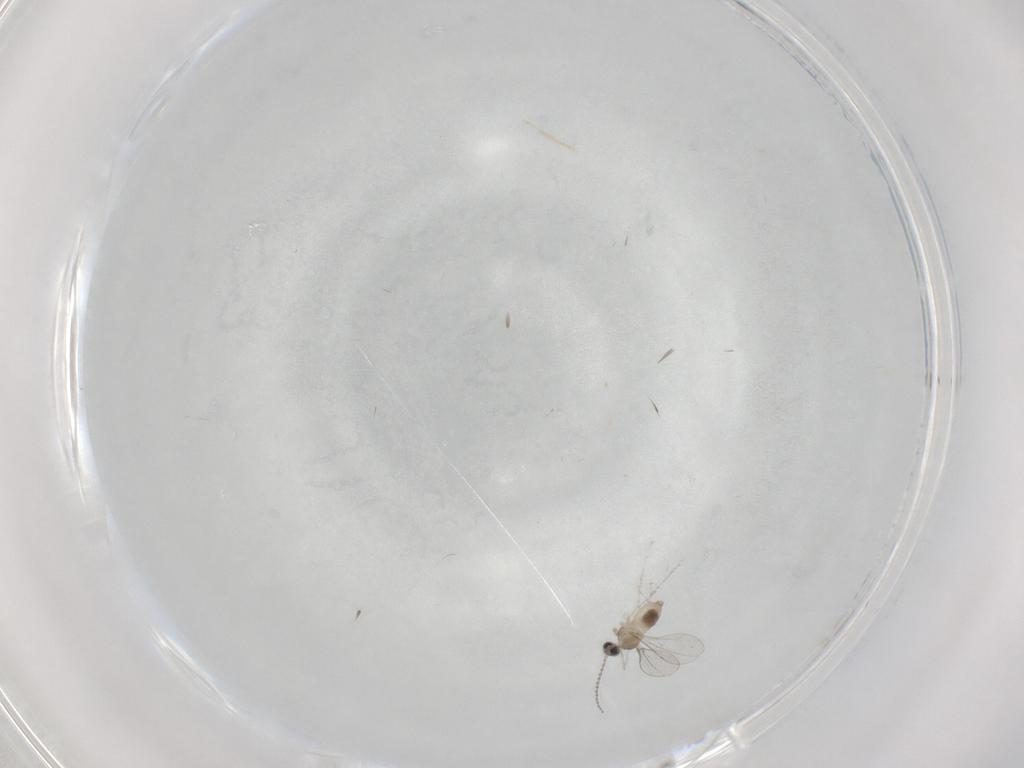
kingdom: Animalia
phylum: Arthropoda
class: Insecta
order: Diptera
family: Cecidomyiidae
